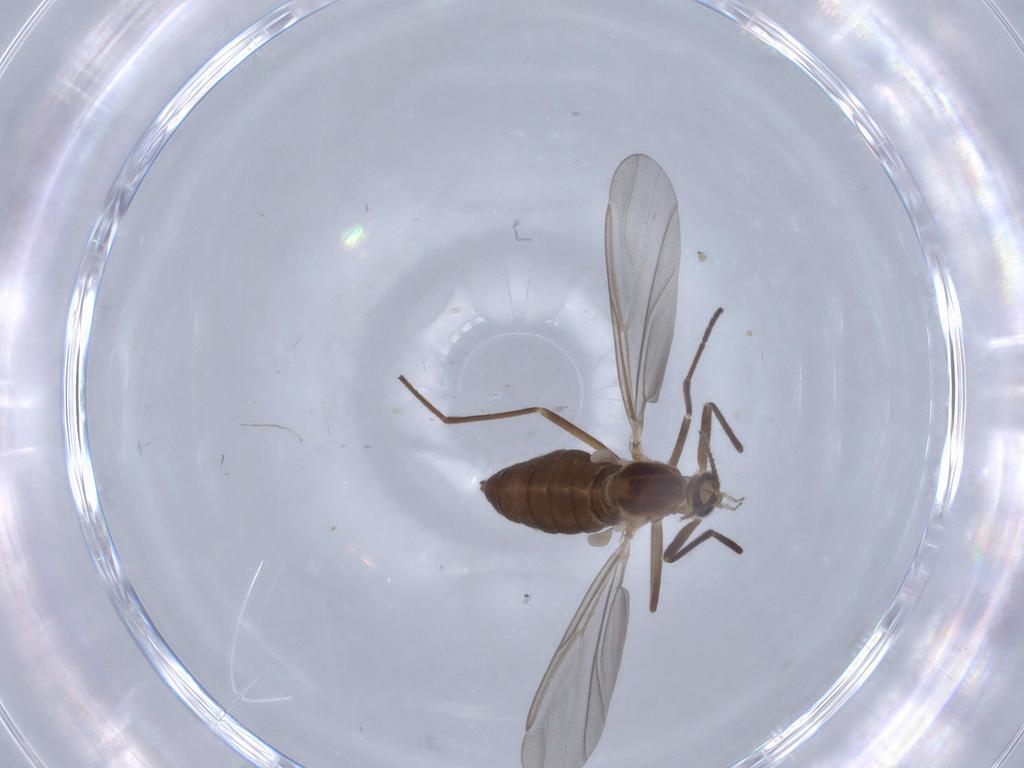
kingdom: Animalia
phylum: Arthropoda
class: Insecta
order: Diptera
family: Cecidomyiidae
